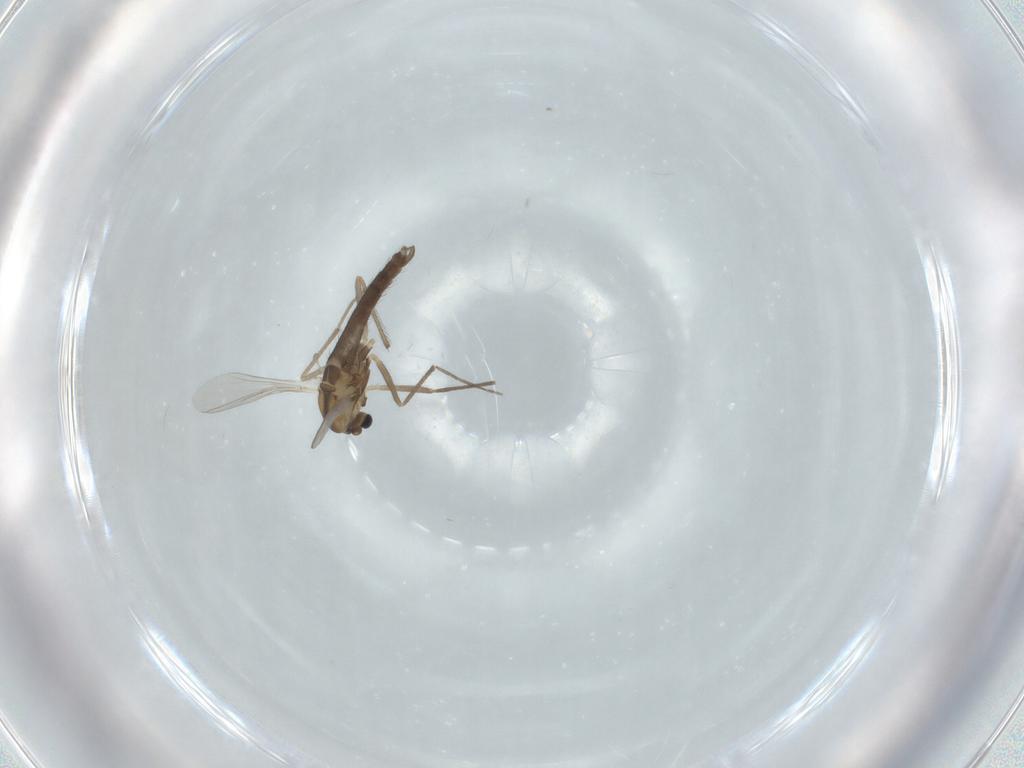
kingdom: Animalia
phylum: Arthropoda
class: Insecta
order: Diptera
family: Chironomidae
